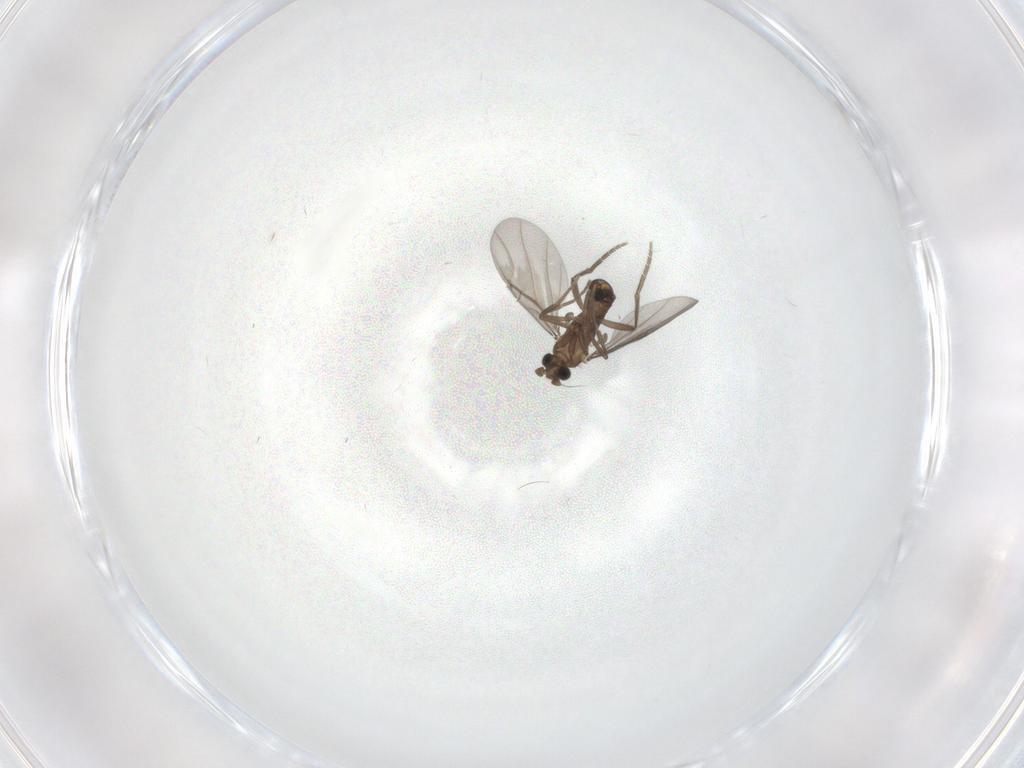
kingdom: Animalia
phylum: Arthropoda
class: Insecta
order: Diptera
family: Phoridae
